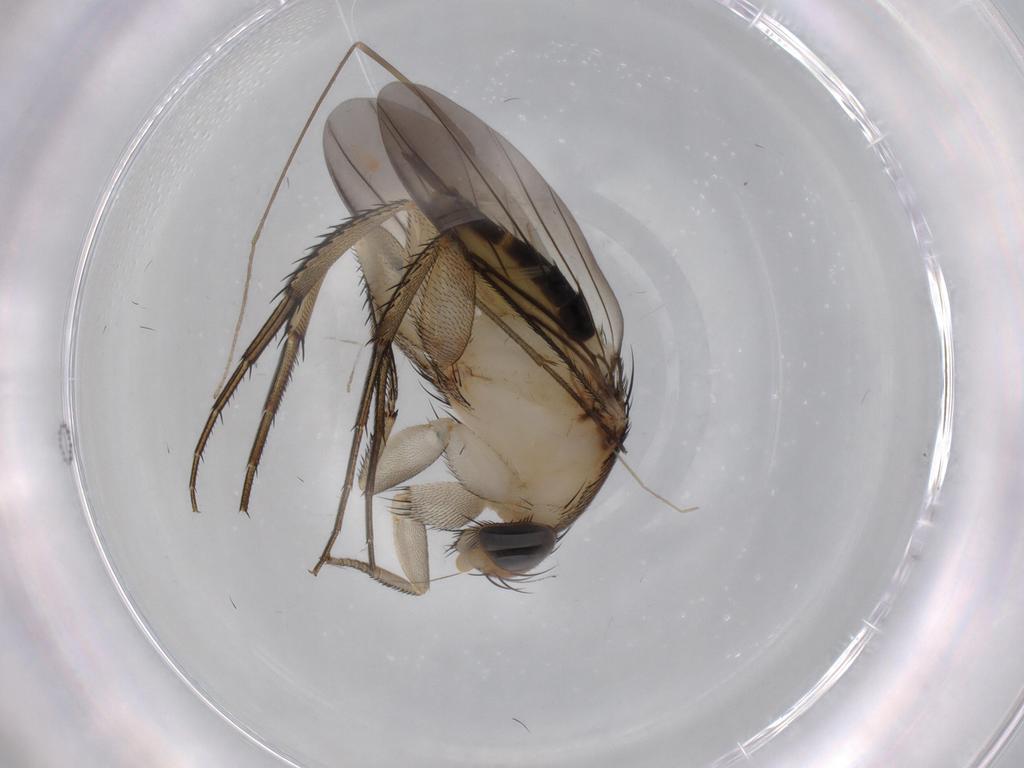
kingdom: Animalia
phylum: Arthropoda
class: Insecta
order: Diptera
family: Phoridae
